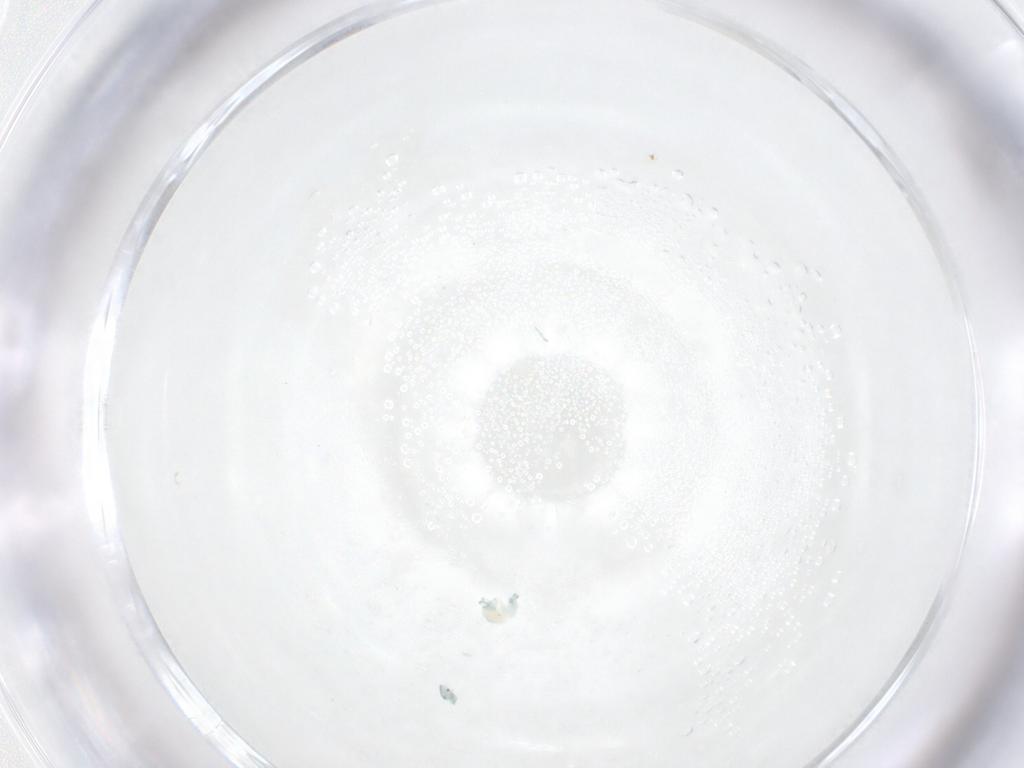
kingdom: Animalia
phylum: Arthropoda
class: Arachnida
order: Trombidiformes
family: Arrenuridae
